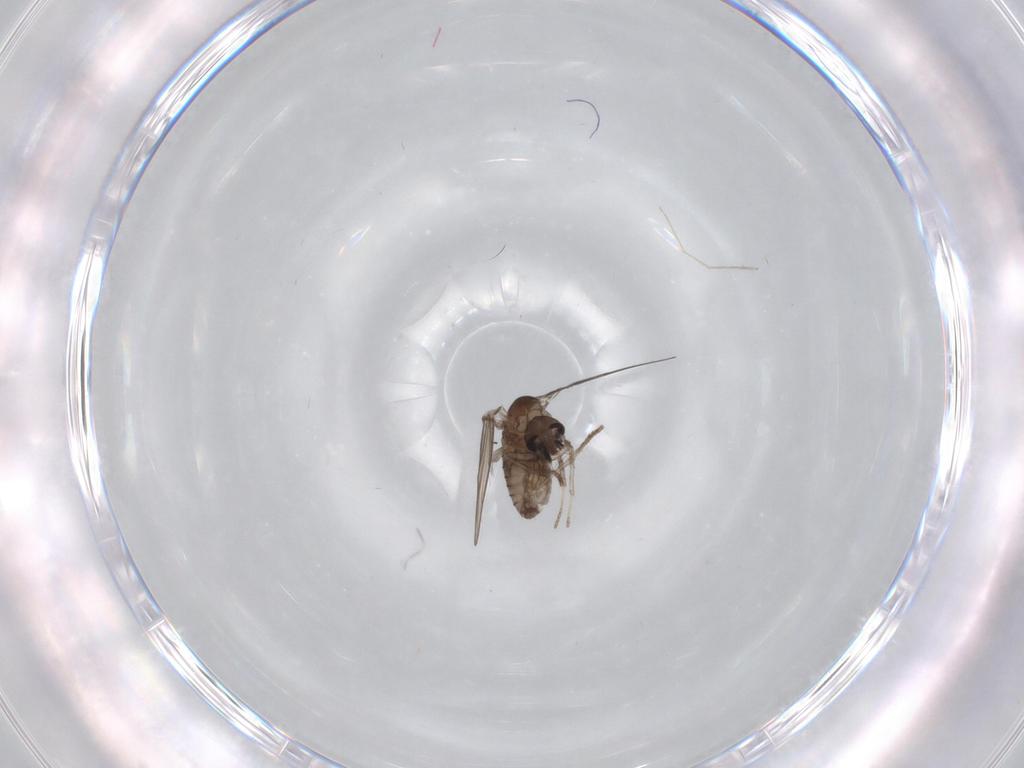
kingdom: Animalia
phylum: Arthropoda
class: Insecta
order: Diptera
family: Psychodidae
